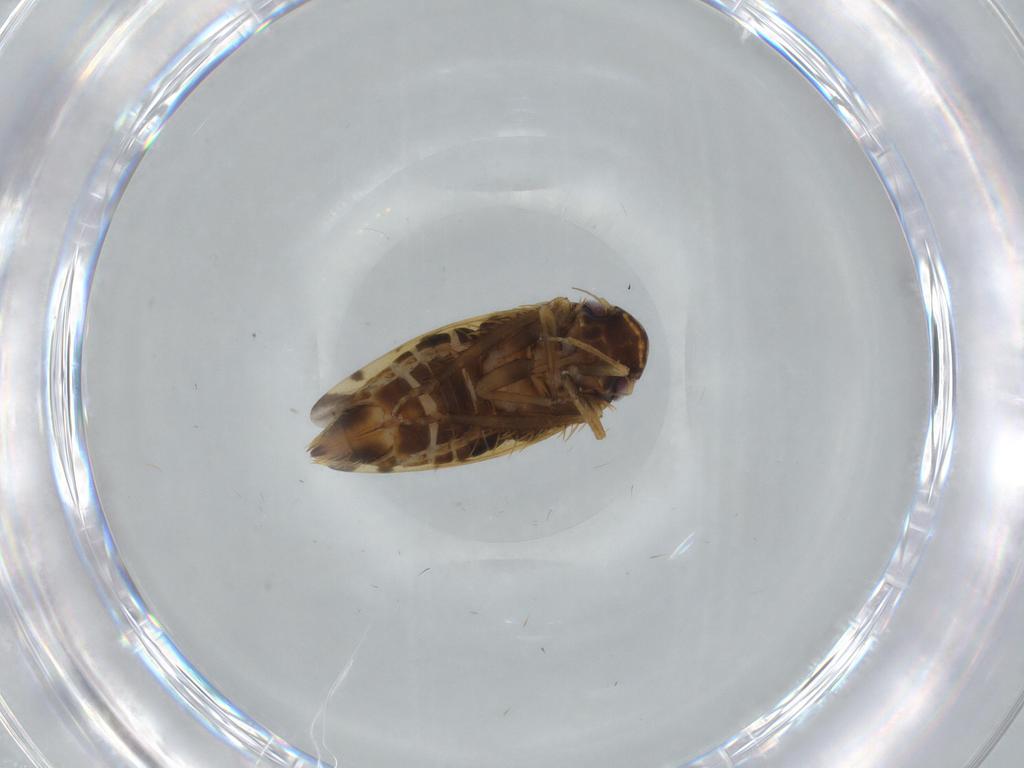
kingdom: Animalia
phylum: Arthropoda
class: Insecta
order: Hemiptera
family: Cicadellidae
